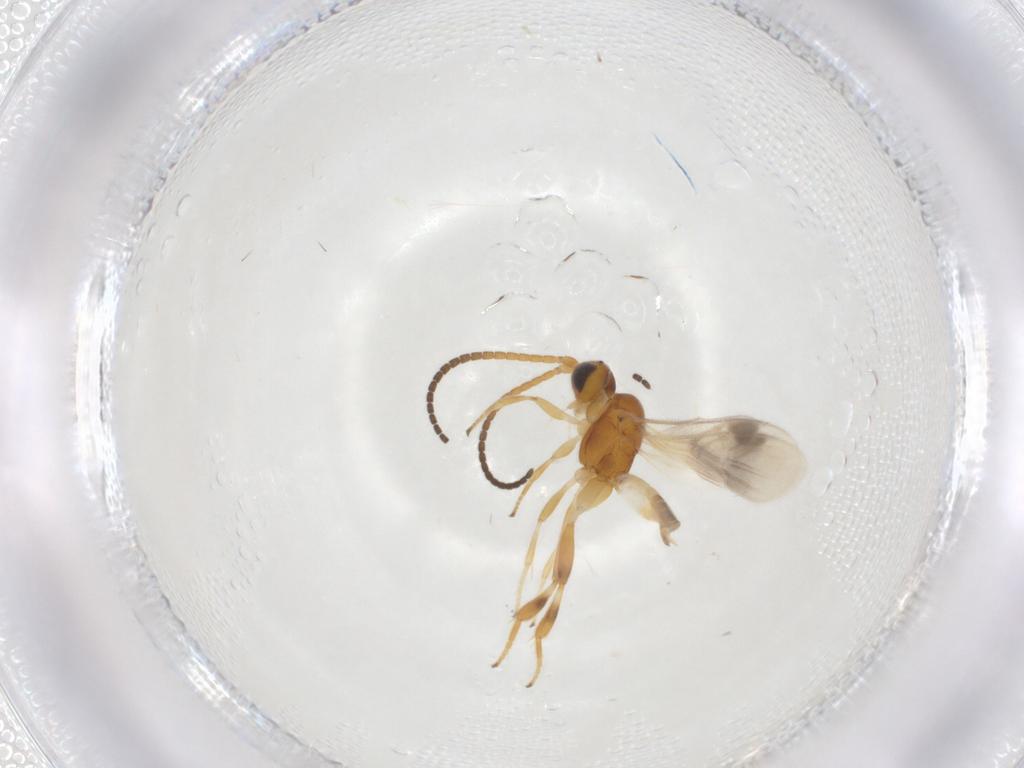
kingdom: Animalia
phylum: Arthropoda
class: Insecta
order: Hymenoptera
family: Braconidae
